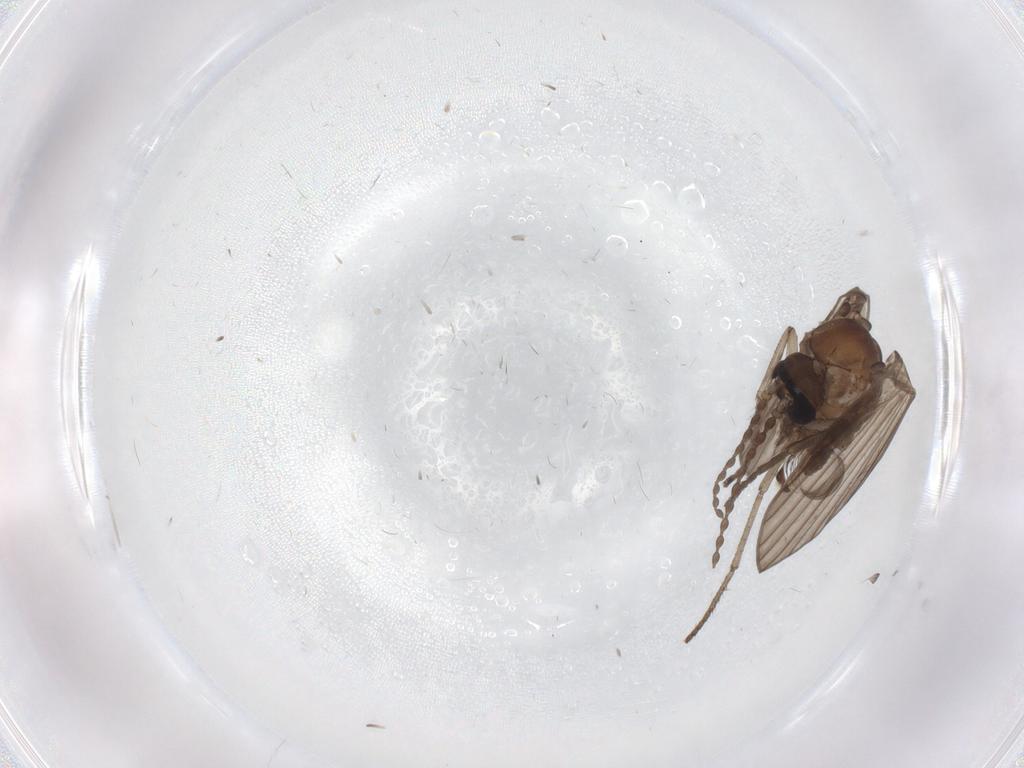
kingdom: Animalia
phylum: Arthropoda
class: Insecta
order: Diptera
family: Psychodidae
